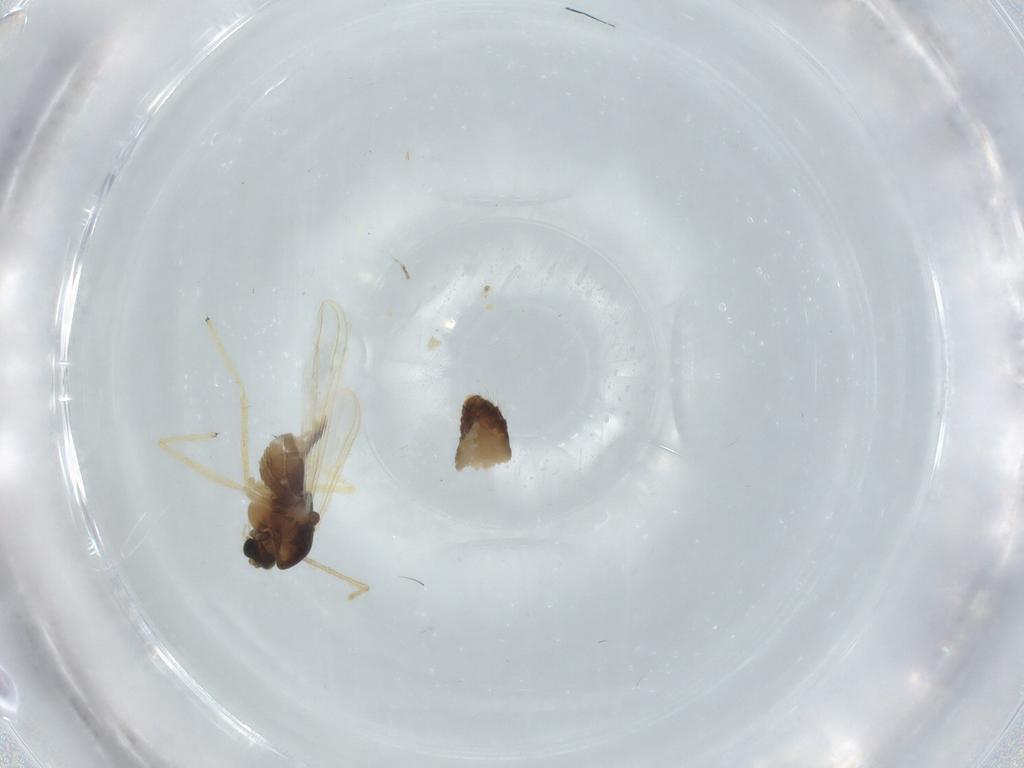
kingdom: Animalia
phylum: Arthropoda
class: Insecta
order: Diptera
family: Chironomidae
